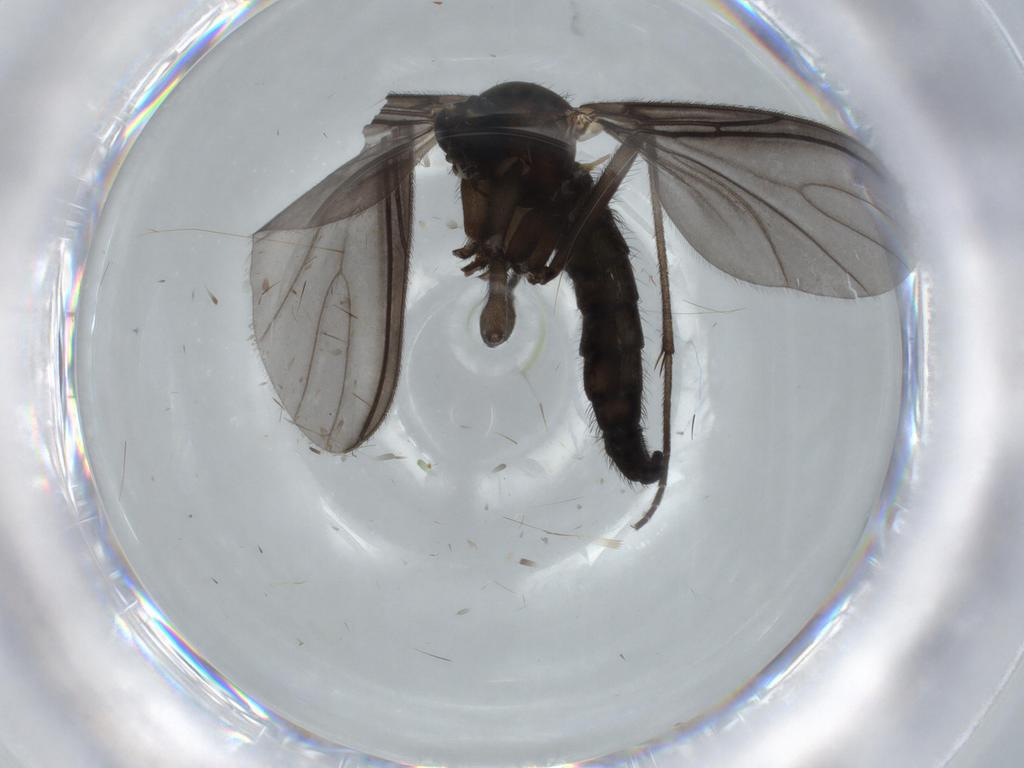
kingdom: Animalia
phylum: Arthropoda
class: Insecta
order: Diptera
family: Sciaridae
